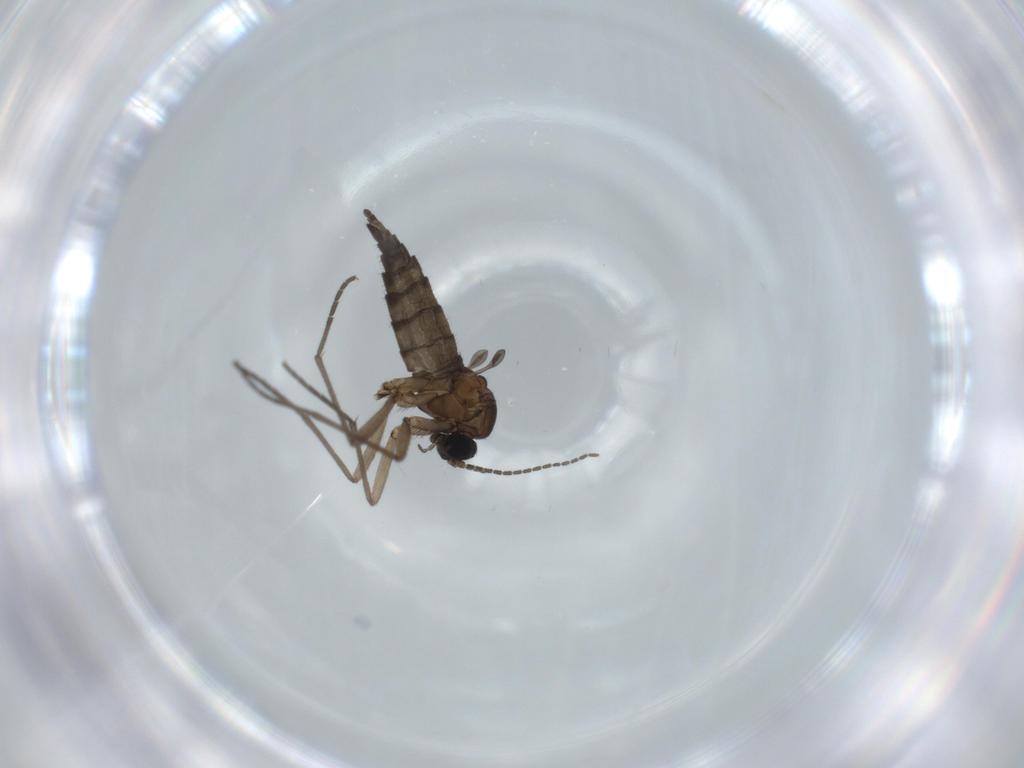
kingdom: Animalia
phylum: Arthropoda
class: Insecta
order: Diptera
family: Sciaridae
